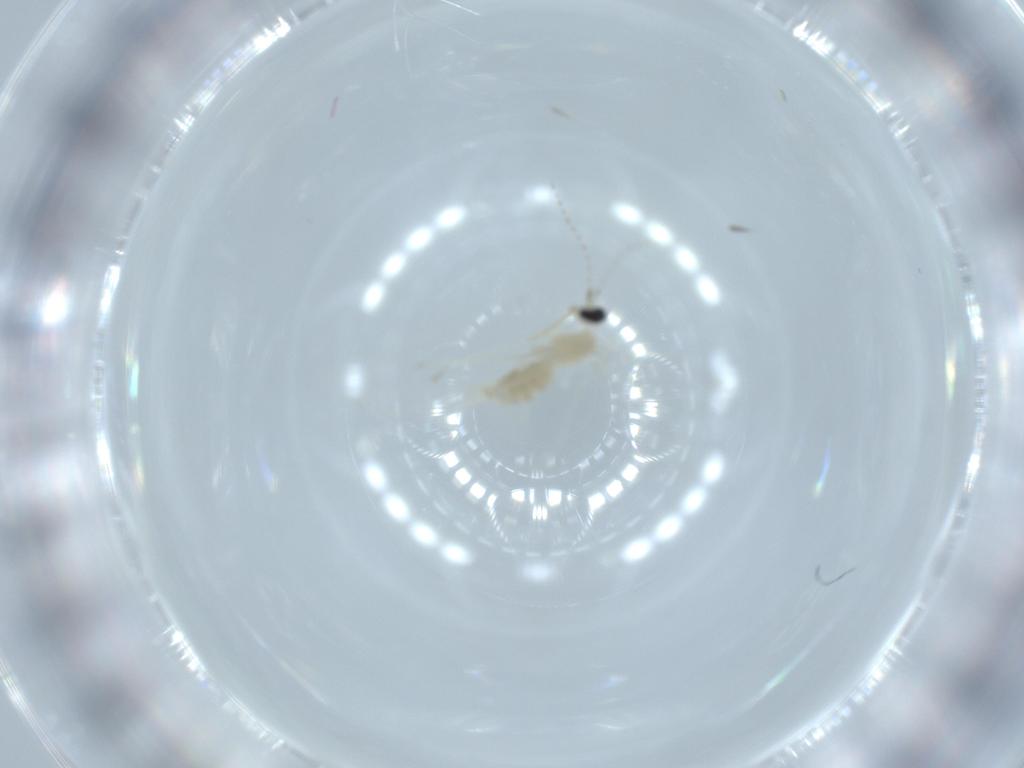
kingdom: Animalia
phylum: Arthropoda
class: Insecta
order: Diptera
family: Cecidomyiidae
